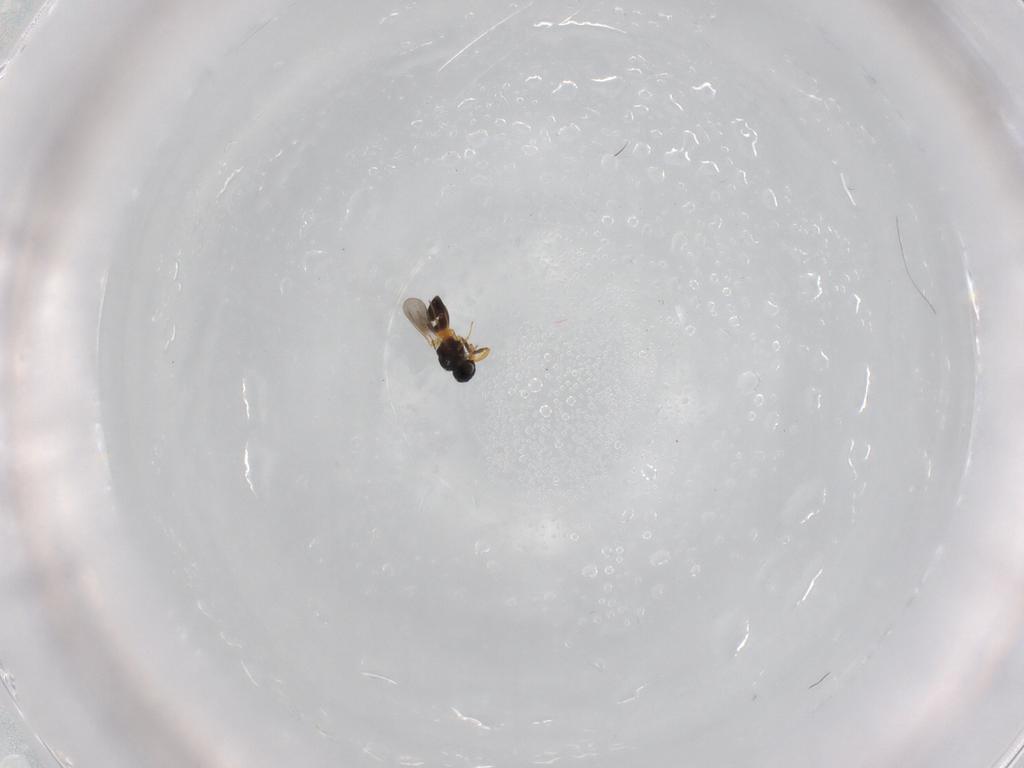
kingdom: Animalia
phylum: Arthropoda
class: Insecta
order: Hymenoptera
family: Platygastridae
